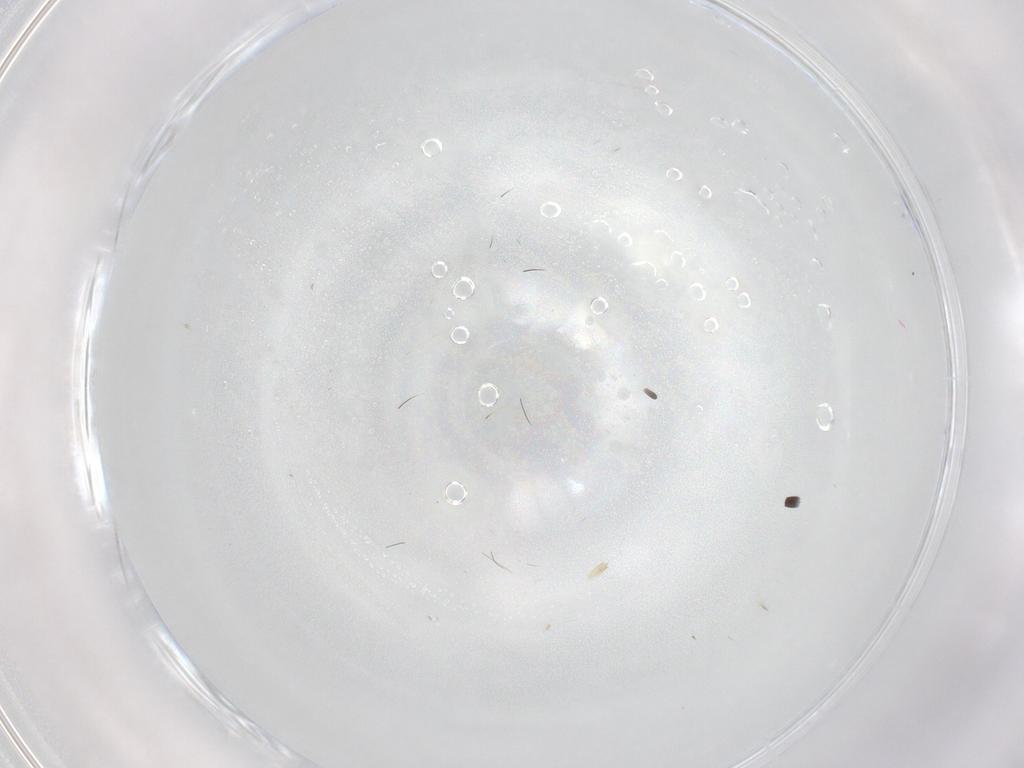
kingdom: Animalia
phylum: Arthropoda
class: Insecta
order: Diptera
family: Cecidomyiidae
